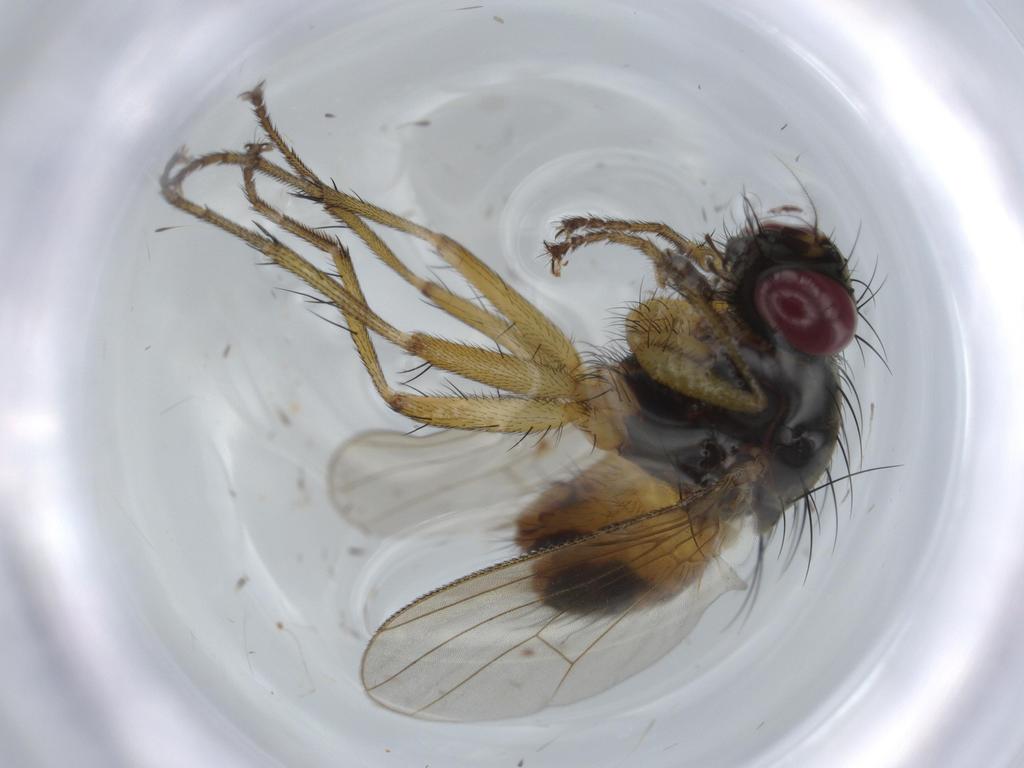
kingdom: Animalia
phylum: Arthropoda
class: Insecta
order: Diptera
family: Muscidae
